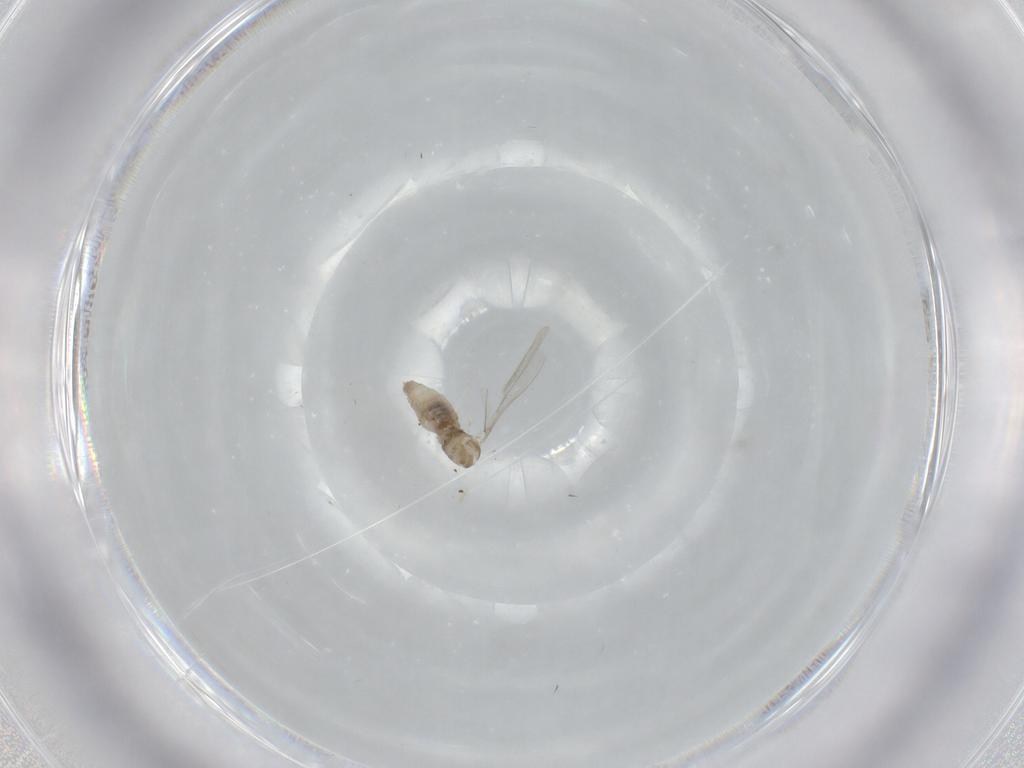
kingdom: Animalia
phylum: Arthropoda
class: Insecta
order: Diptera
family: Cecidomyiidae
